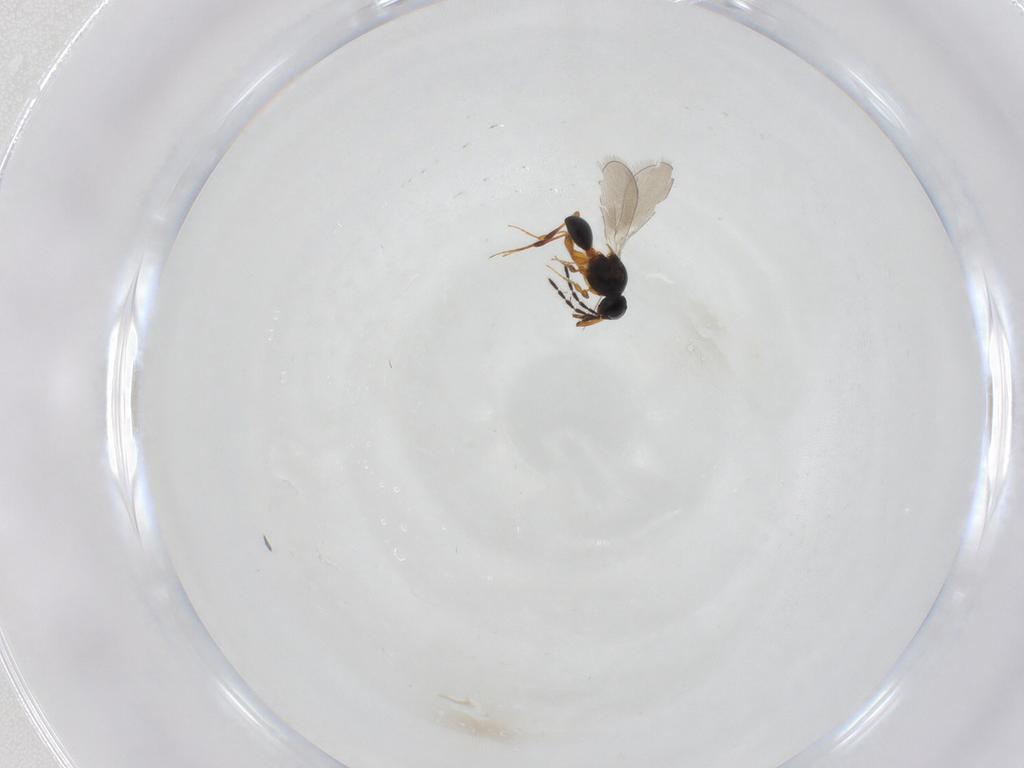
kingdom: Animalia
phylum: Arthropoda
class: Insecta
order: Hymenoptera
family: Platygastridae
